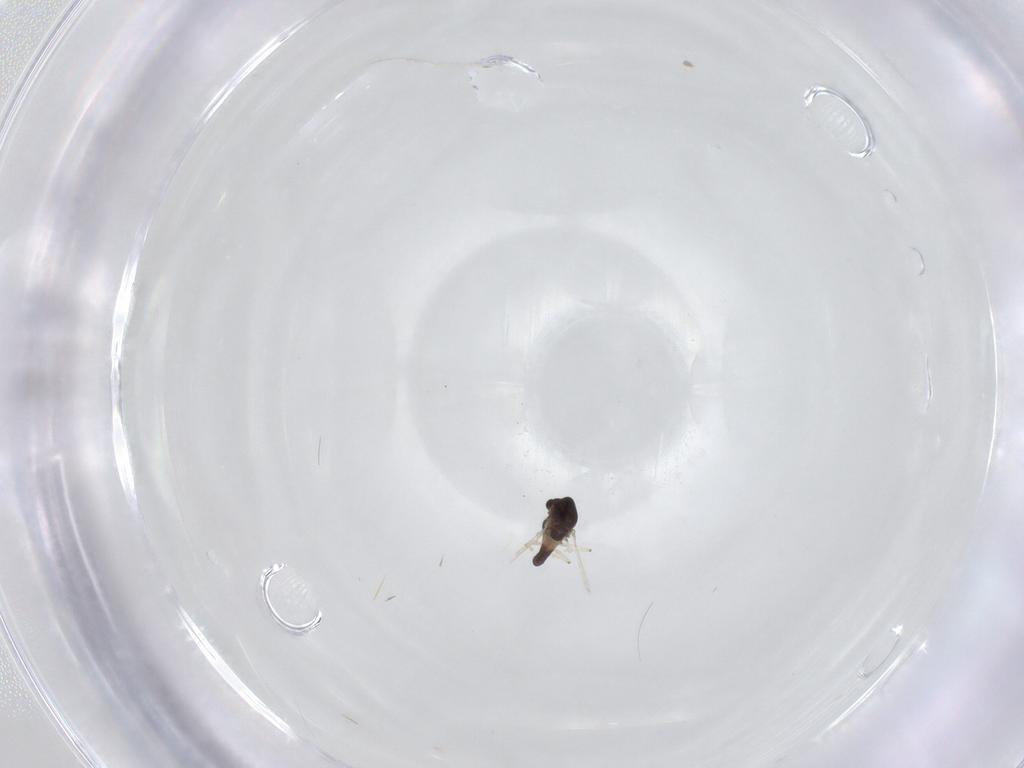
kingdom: Animalia
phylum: Arthropoda
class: Insecta
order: Diptera
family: Chironomidae
